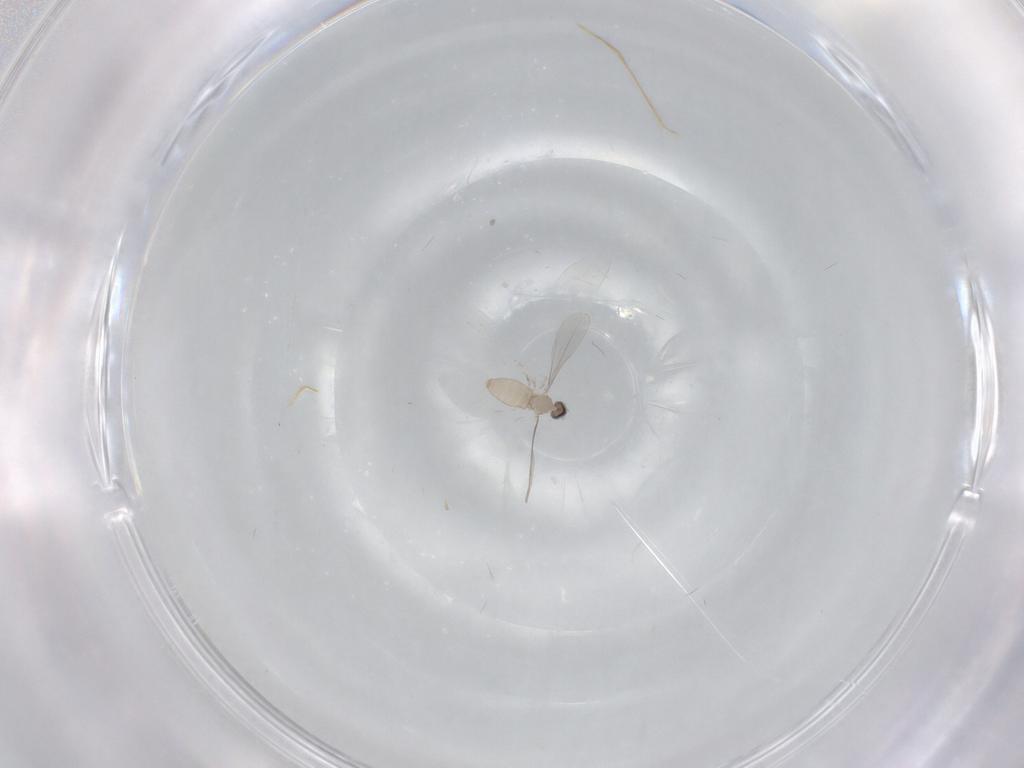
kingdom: Animalia
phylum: Arthropoda
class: Insecta
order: Diptera
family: Cecidomyiidae
